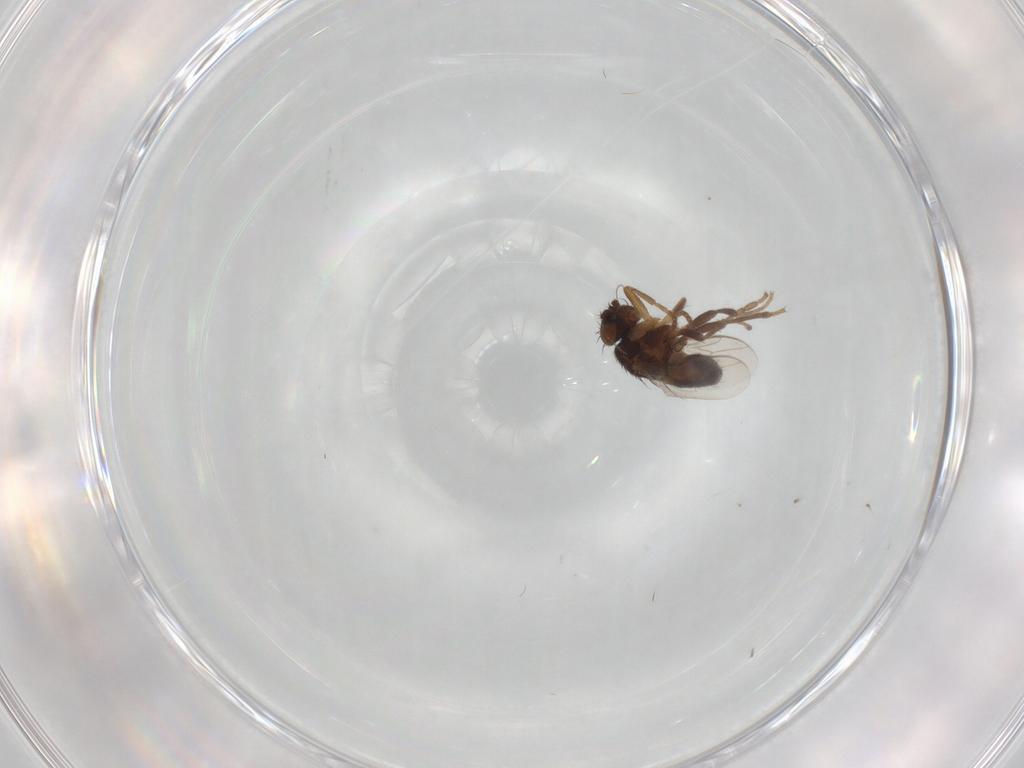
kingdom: Animalia
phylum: Arthropoda
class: Insecta
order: Diptera
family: Sphaeroceridae
